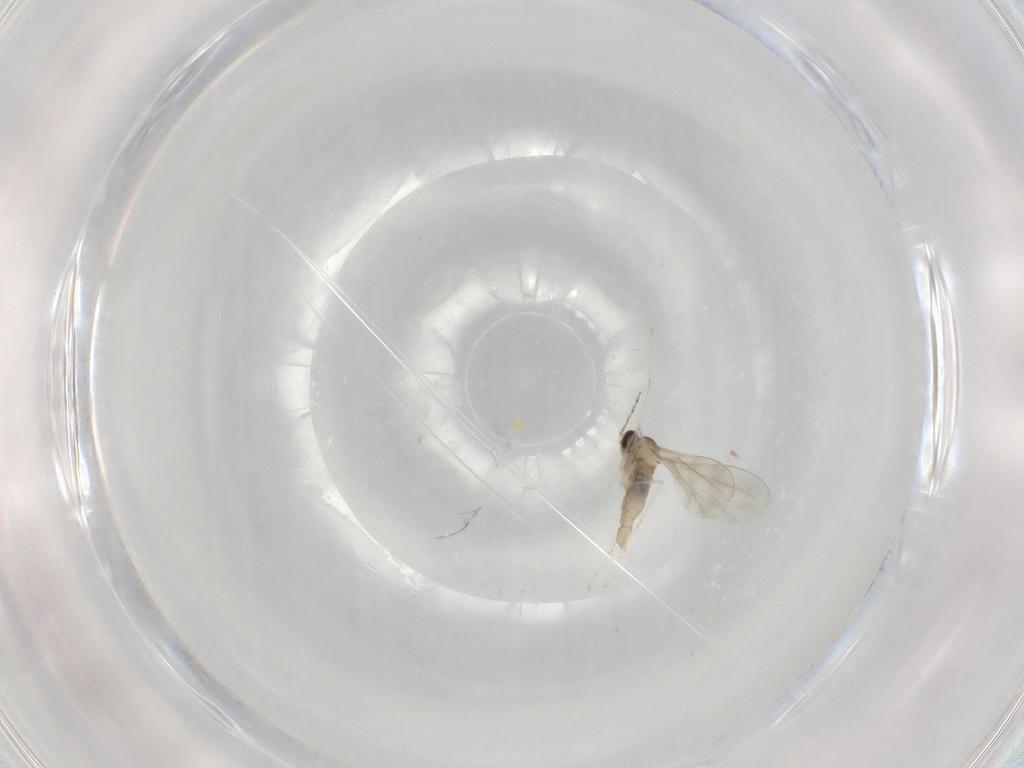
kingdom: Animalia
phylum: Arthropoda
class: Insecta
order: Diptera
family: Cecidomyiidae
